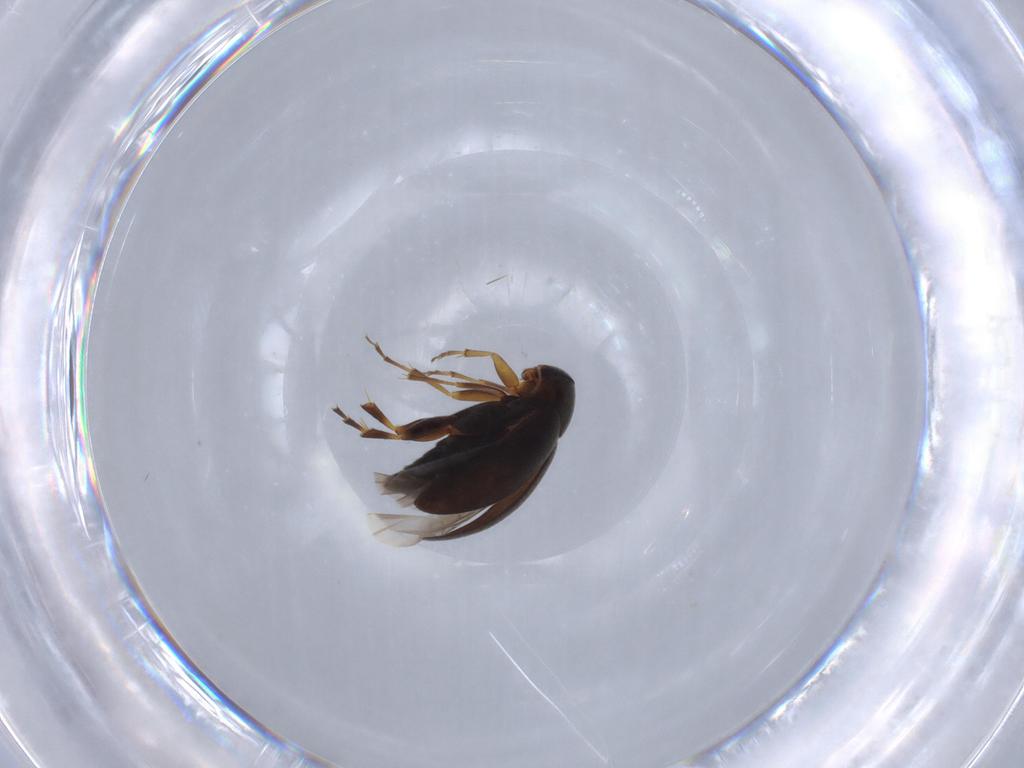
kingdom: Animalia
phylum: Arthropoda
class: Insecta
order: Coleoptera
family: Scraptiidae
